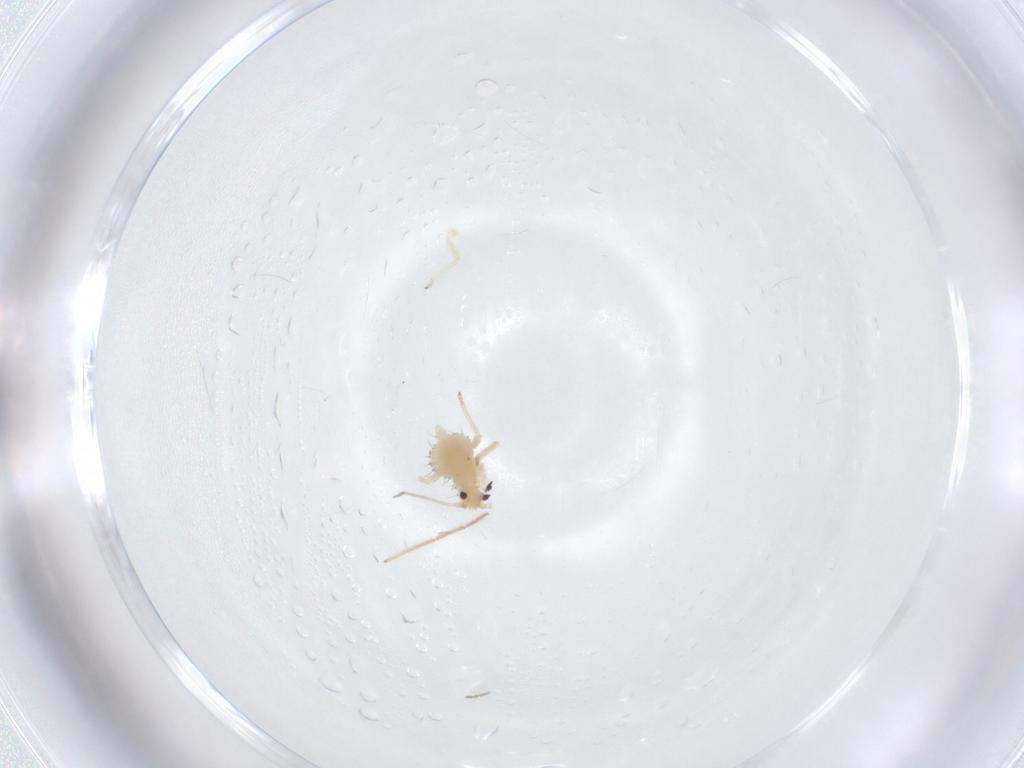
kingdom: Animalia
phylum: Arthropoda
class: Insecta
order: Hemiptera
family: Aphididae
